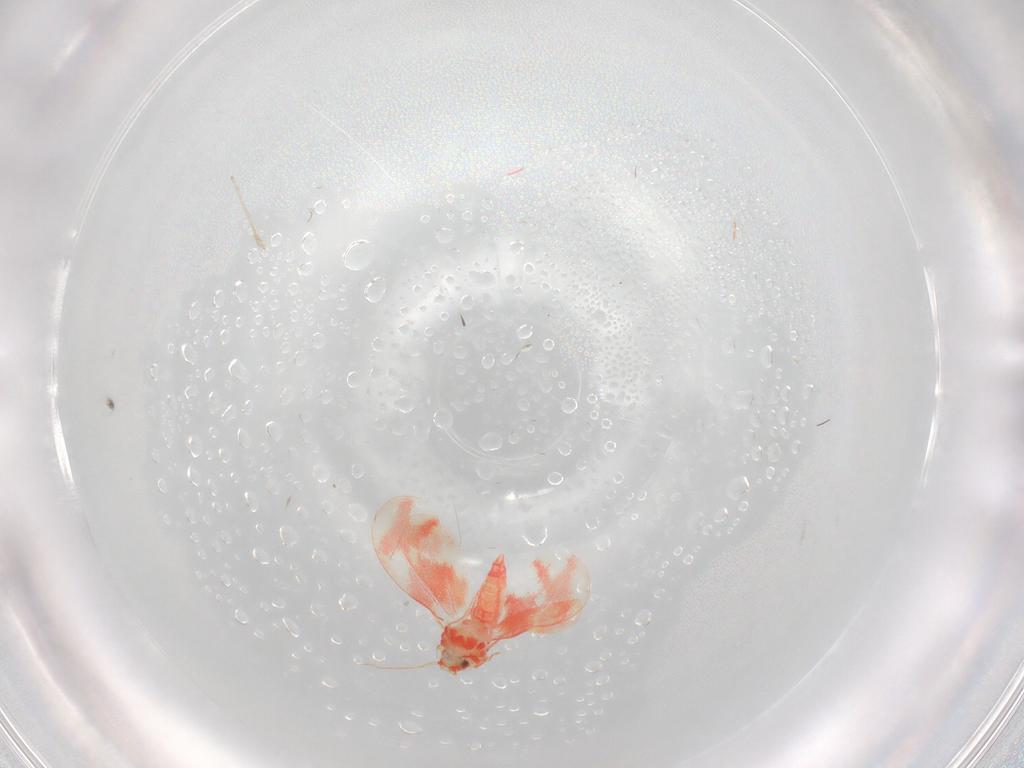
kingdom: Animalia
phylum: Arthropoda
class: Insecta
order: Hemiptera
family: Aleyrodidae
